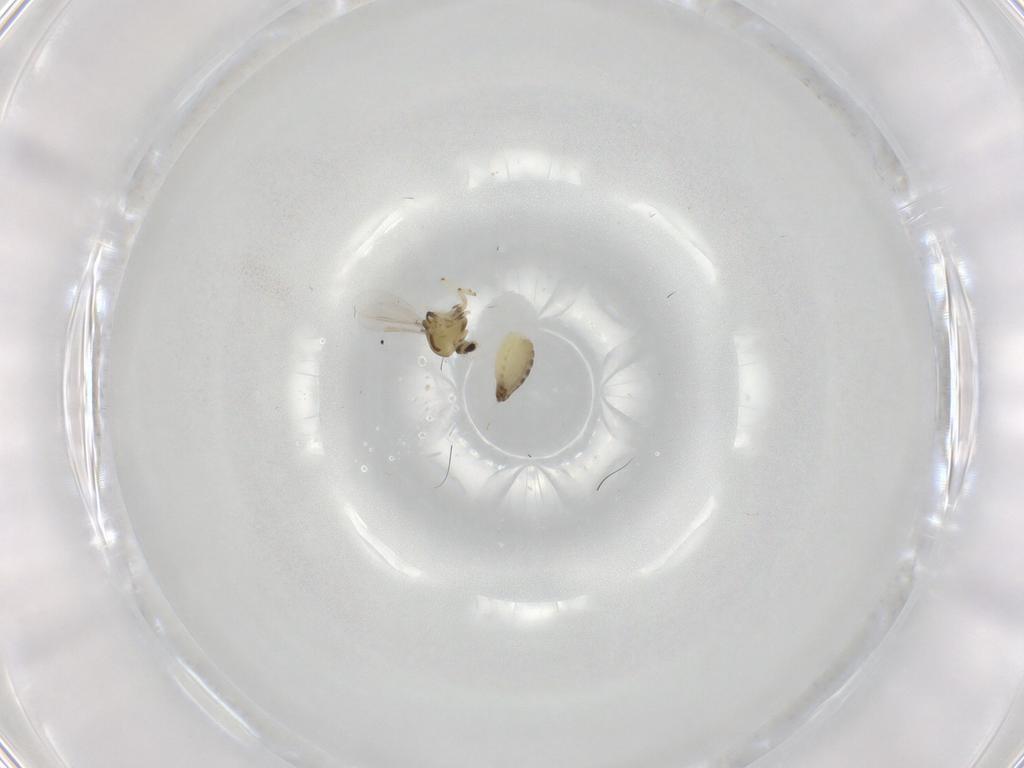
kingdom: Animalia
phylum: Arthropoda
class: Insecta
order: Diptera
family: Chironomidae
